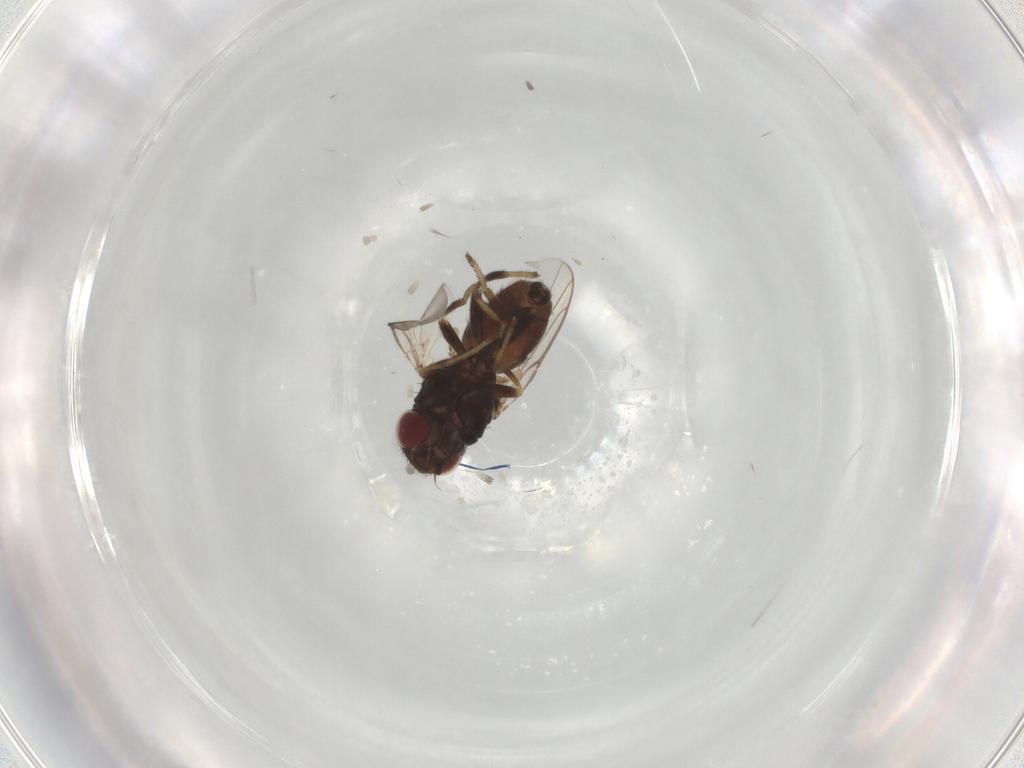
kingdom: Animalia
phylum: Arthropoda
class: Insecta
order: Diptera
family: Chloropidae
